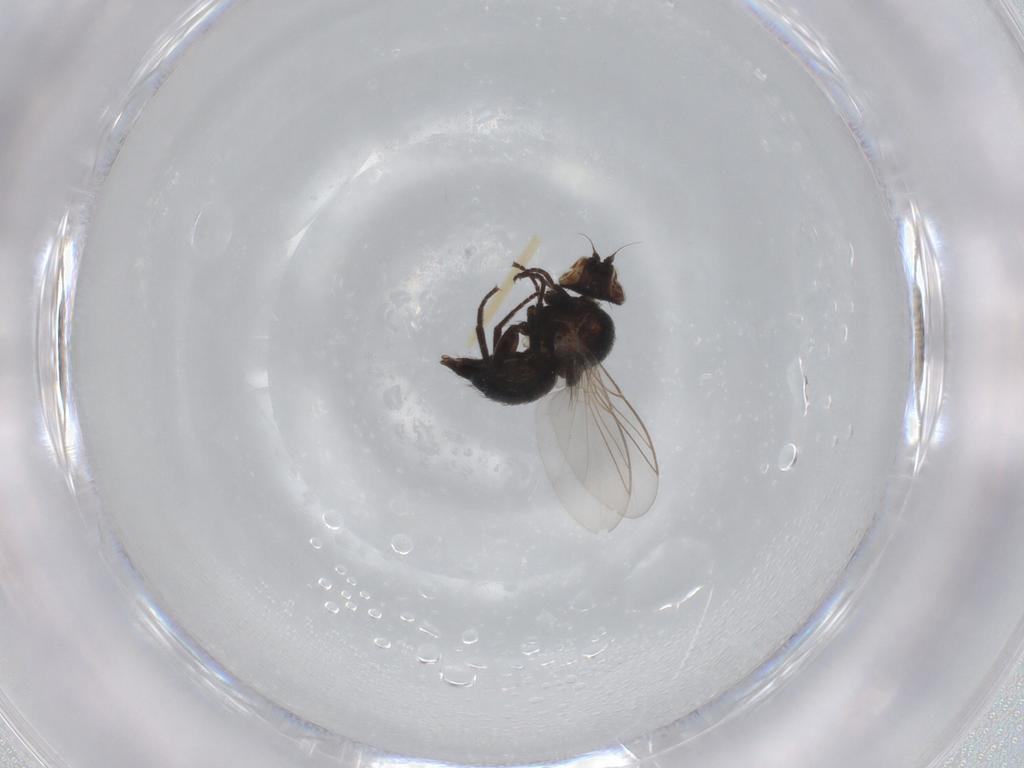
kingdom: Animalia
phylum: Arthropoda
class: Insecta
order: Diptera
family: Psychodidae
